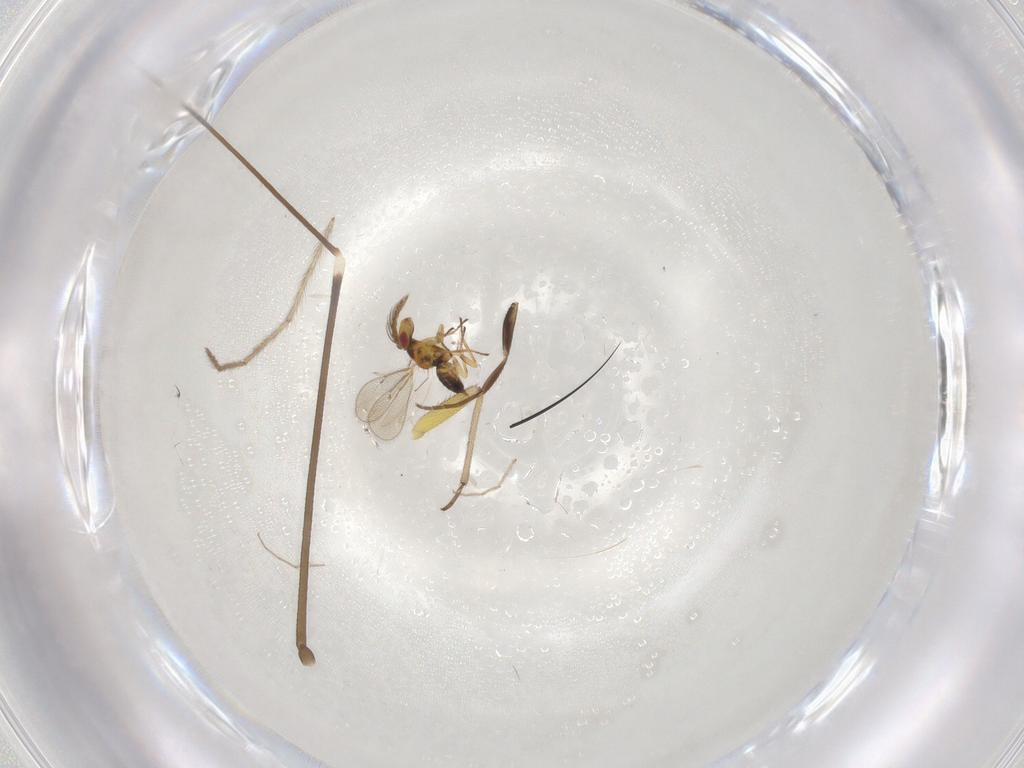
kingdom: Animalia
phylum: Arthropoda
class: Insecta
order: Hymenoptera
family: Eulophidae
